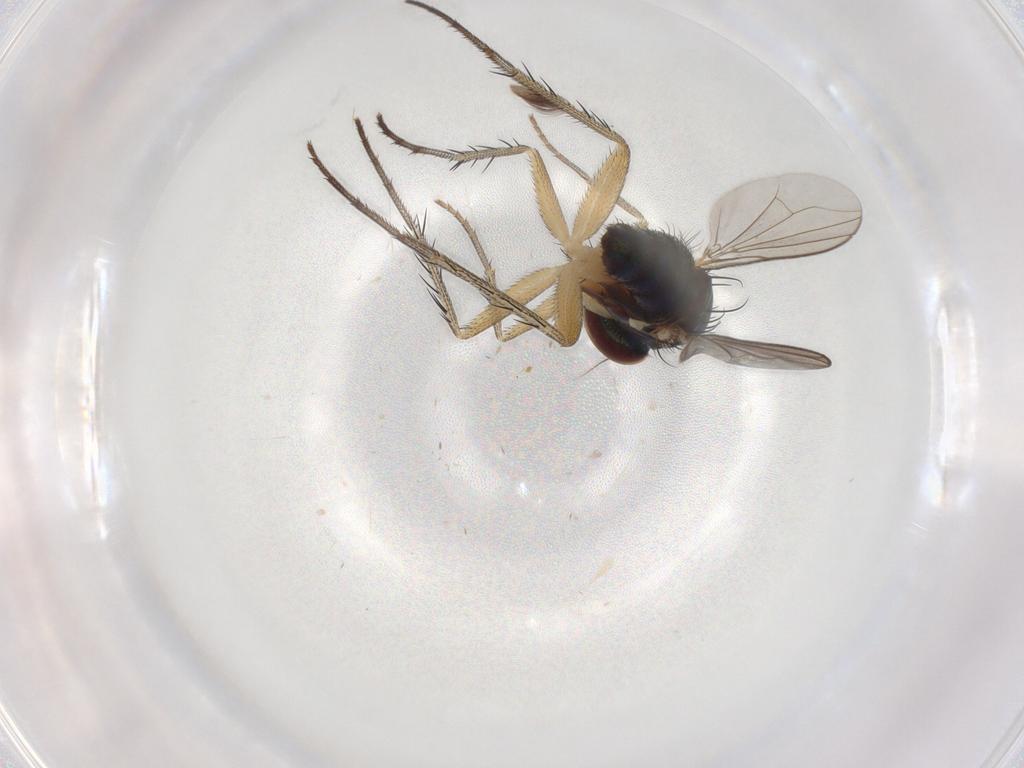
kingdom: Animalia
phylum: Arthropoda
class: Insecta
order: Diptera
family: Dolichopodidae
